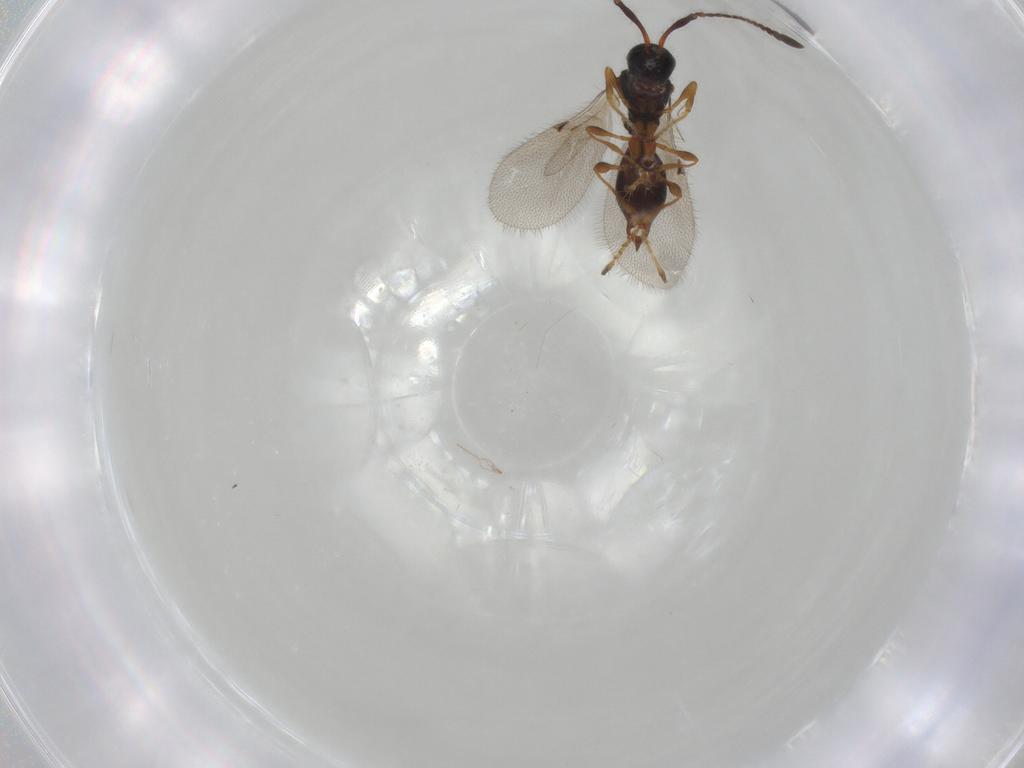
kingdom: Animalia
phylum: Arthropoda
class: Insecta
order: Hymenoptera
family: Diapriidae
